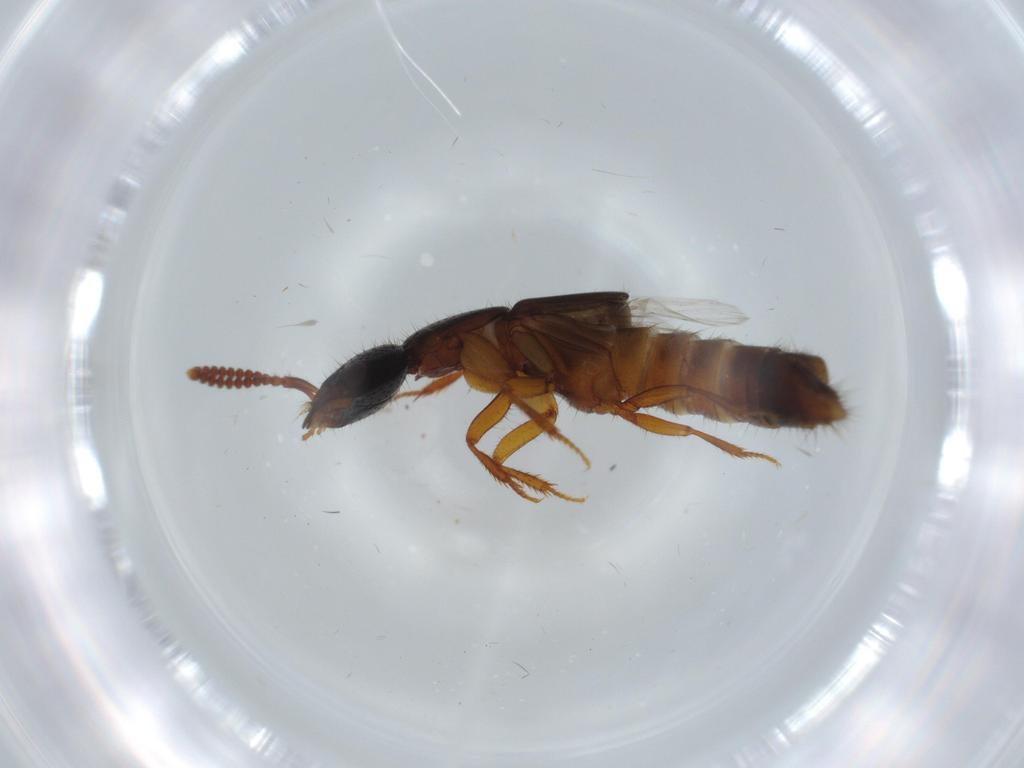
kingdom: Animalia
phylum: Arthropoda
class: Insecta
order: Coleoptera
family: Staphylinidae
